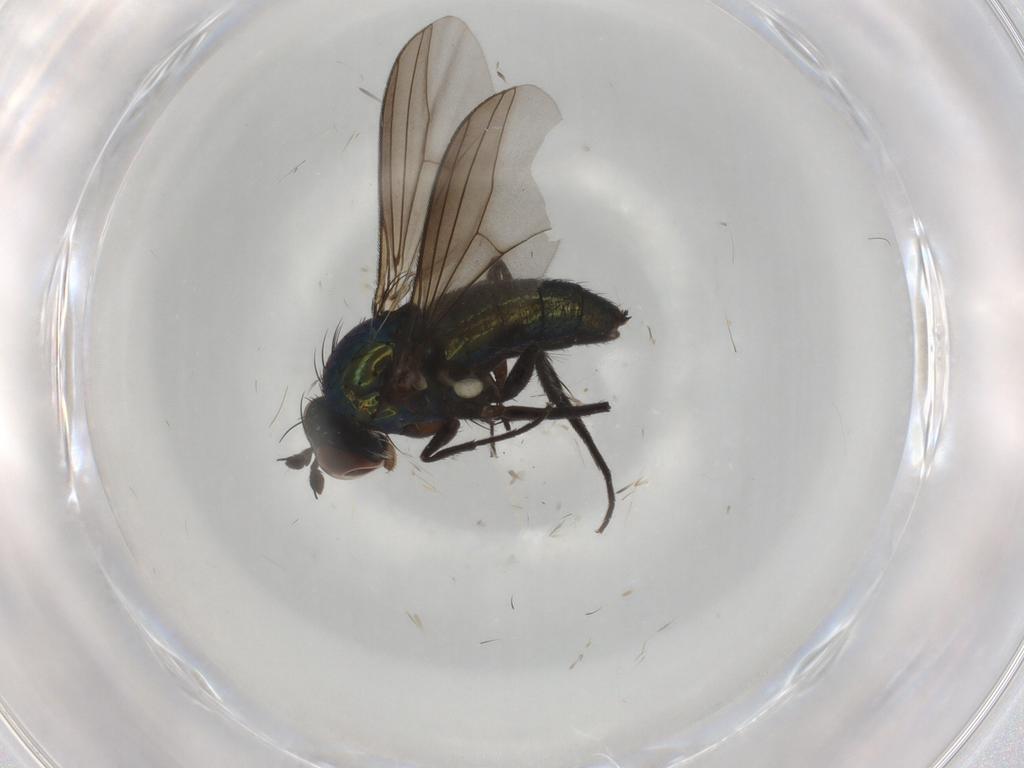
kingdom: Animalia
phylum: Arthropoda
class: Insecta
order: Diptera
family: Dolichopodidae
